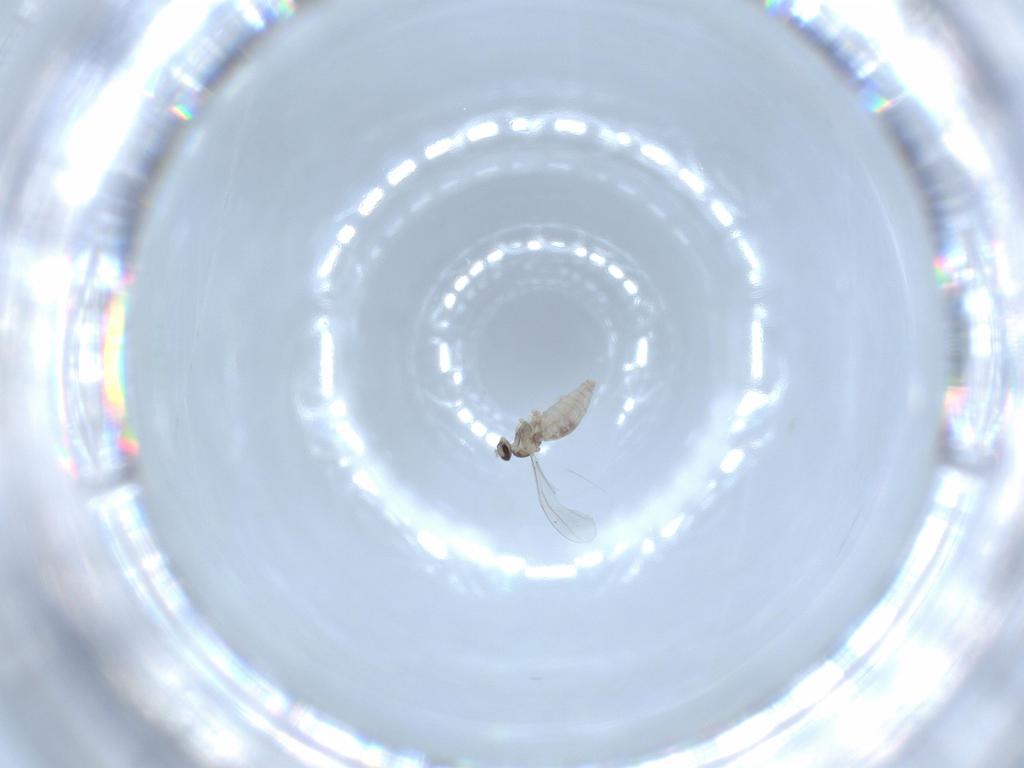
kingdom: Animalia
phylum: Arthropoda
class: Insecta
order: Diptera
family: Cecidomyiidae
